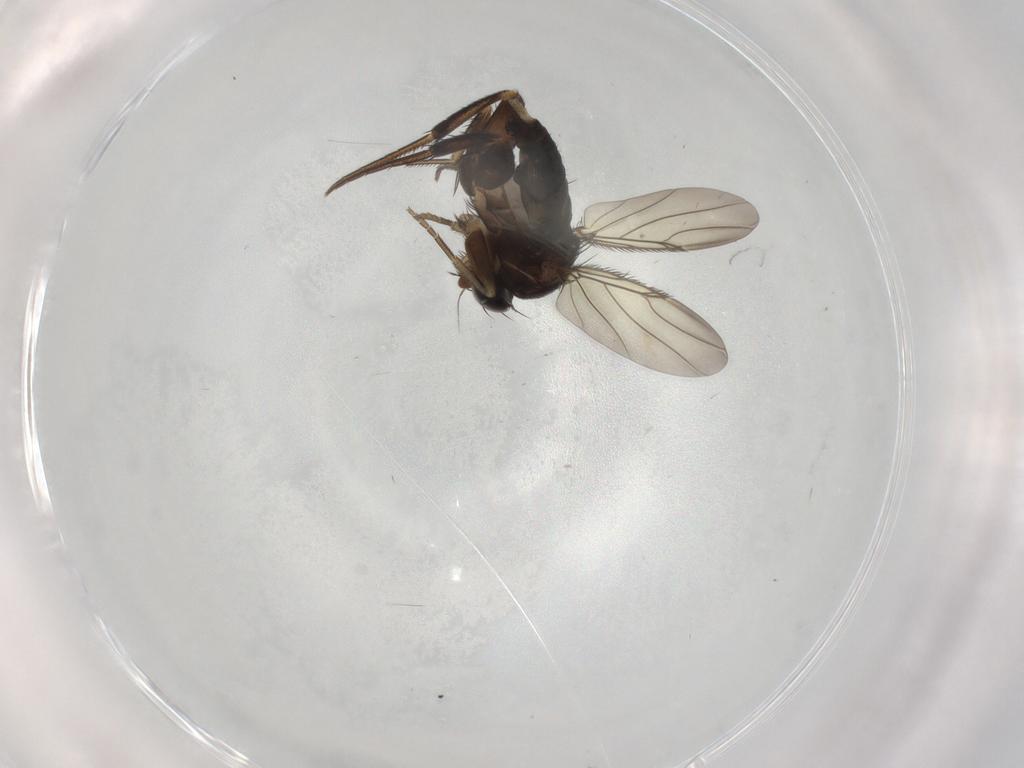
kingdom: Animalia
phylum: Arthropoda
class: Insecta
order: Diptera
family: Phoridae
